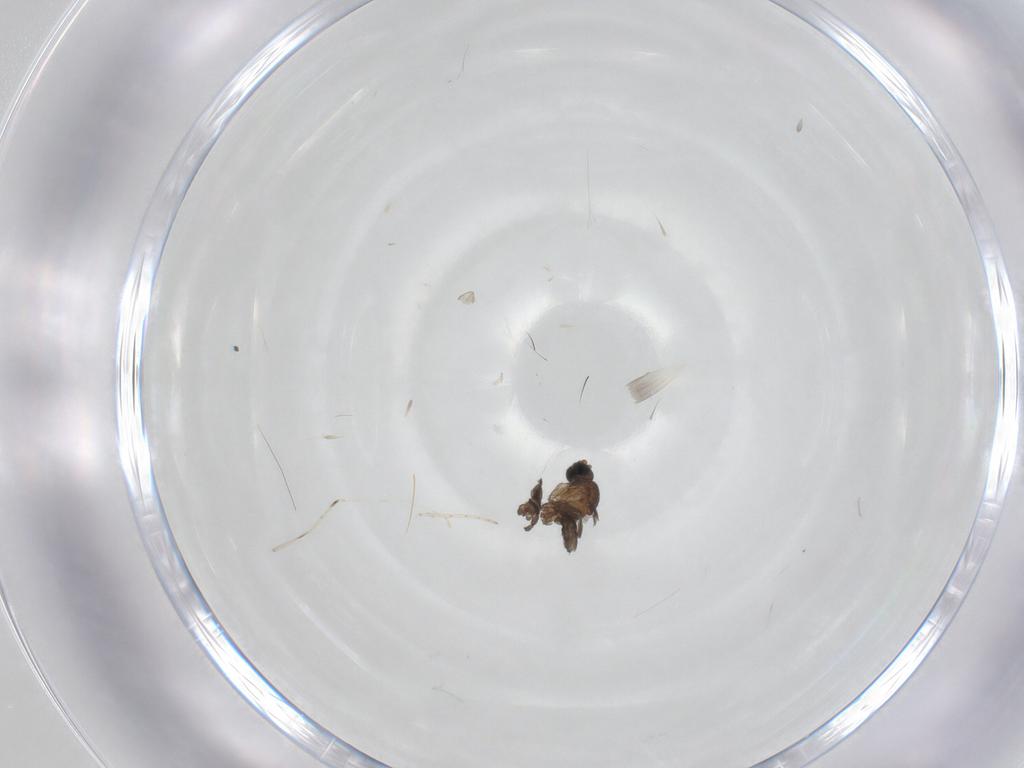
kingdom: Animalia
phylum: Arthropoda
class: Insecta
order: Diptera
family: Sciaridae
